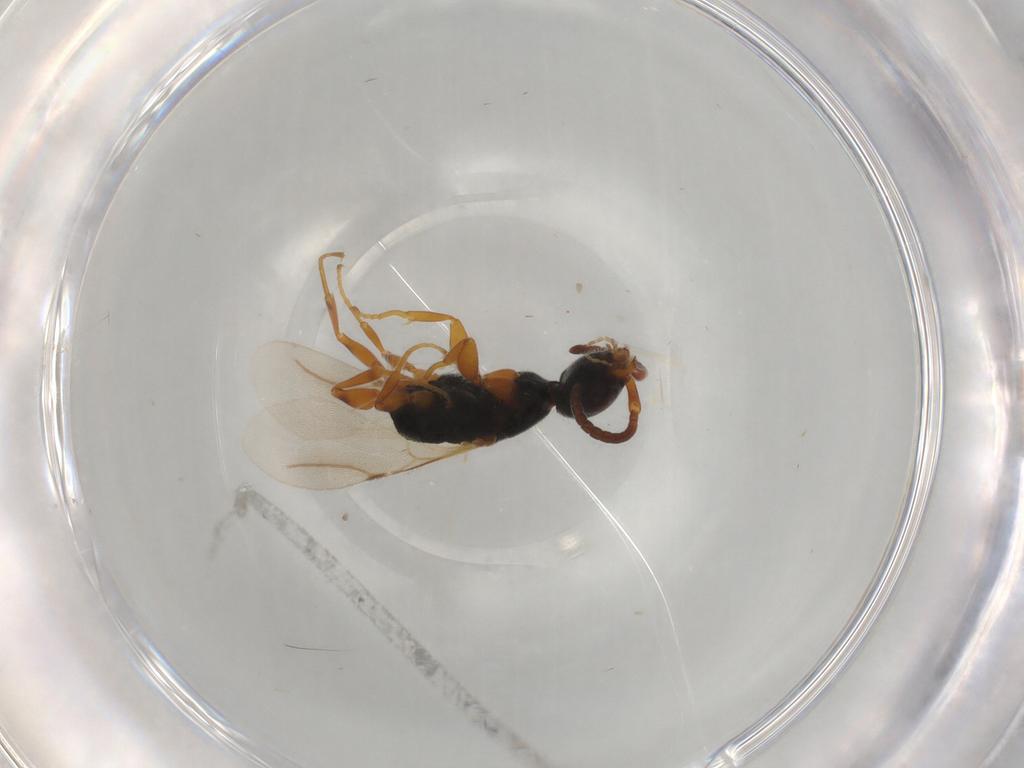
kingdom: Animalia
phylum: Arthropoda
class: Insecta
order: Hymenoptera
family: Bethylidae
